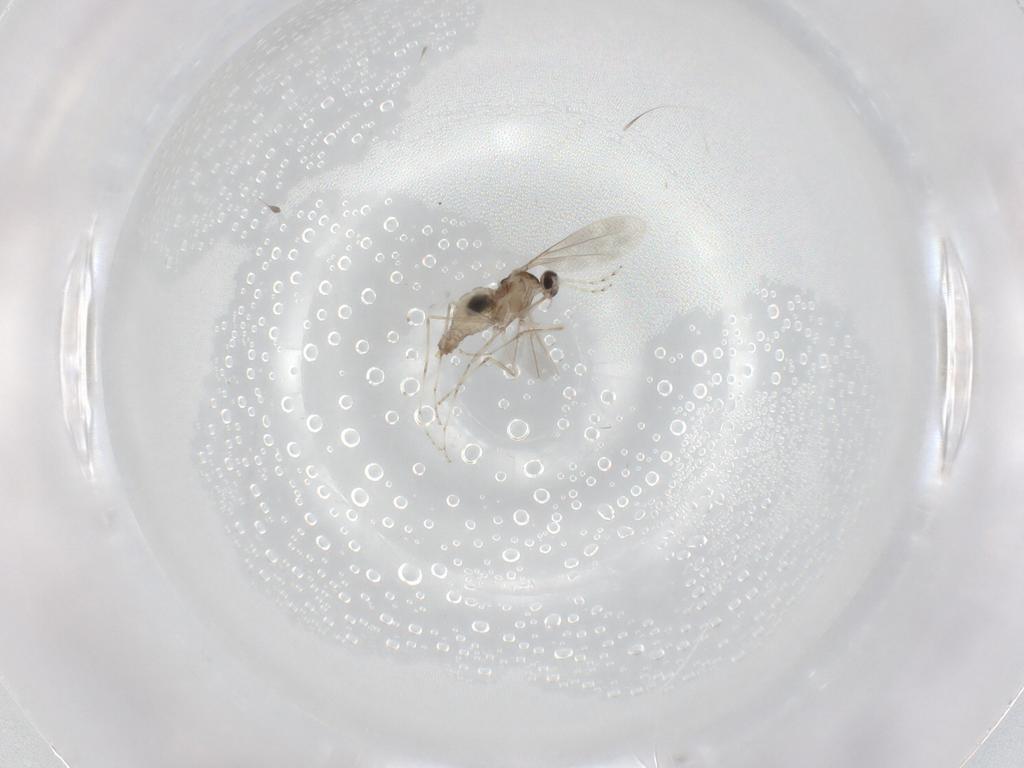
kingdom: Animalia
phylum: Arthropoda
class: Insecta
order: Diptera
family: Cecidomyiidae
